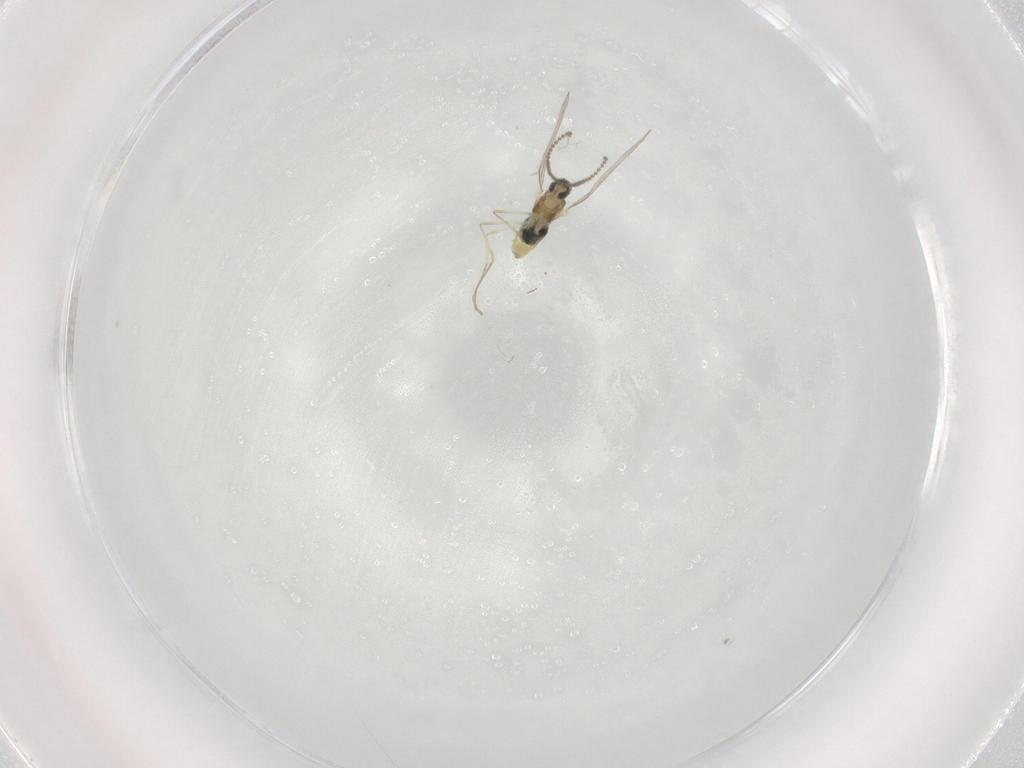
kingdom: Animalia
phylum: Arthropoda
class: Insecta
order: Diptera
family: Cecidomyiidae
